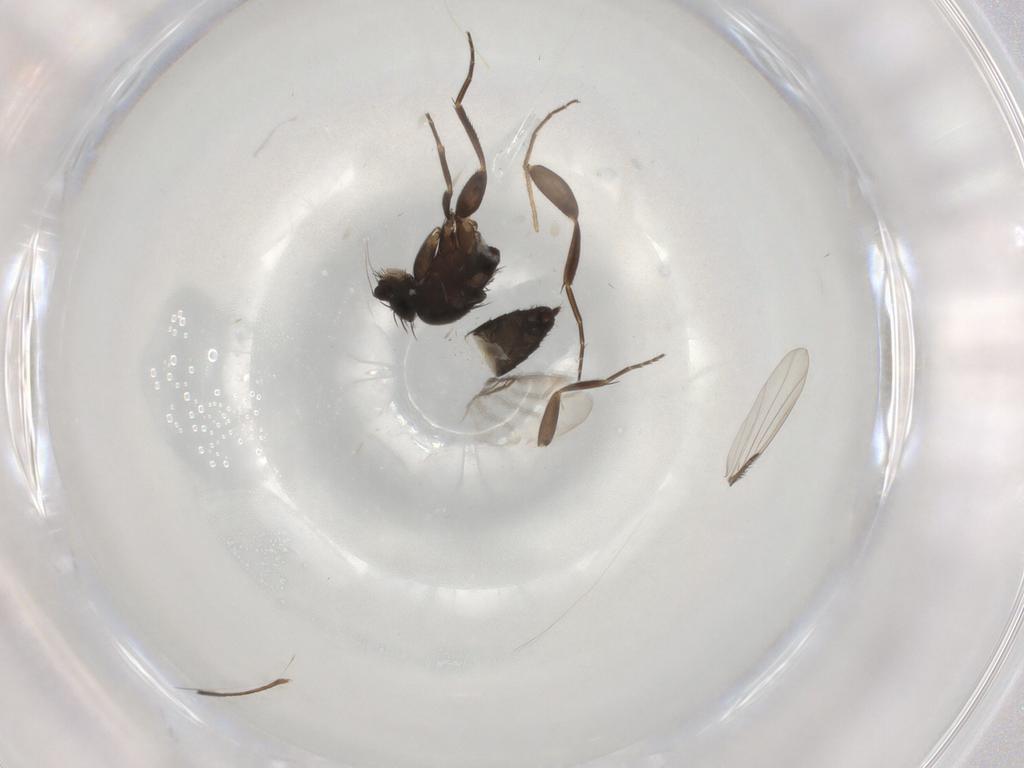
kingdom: Animalia
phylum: Arthropoda
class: Insecta
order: Diptera
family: Phoridae
